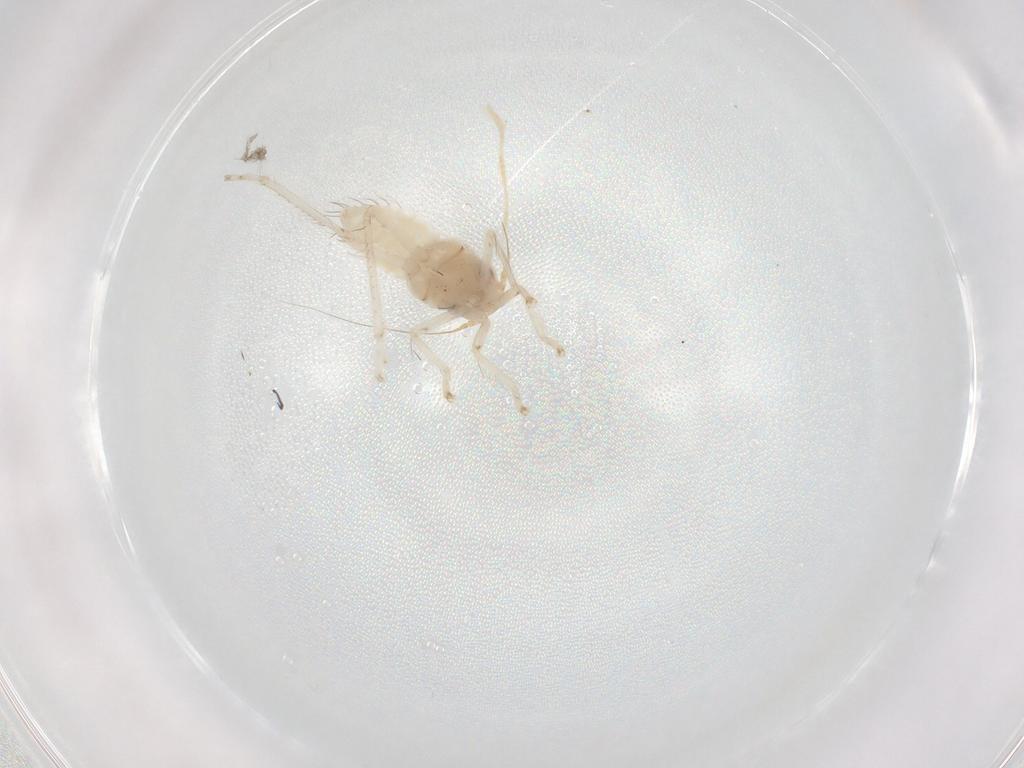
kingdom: Animalia
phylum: Arthropoda
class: Insecta
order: Hemiptera
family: Cicadellidae
